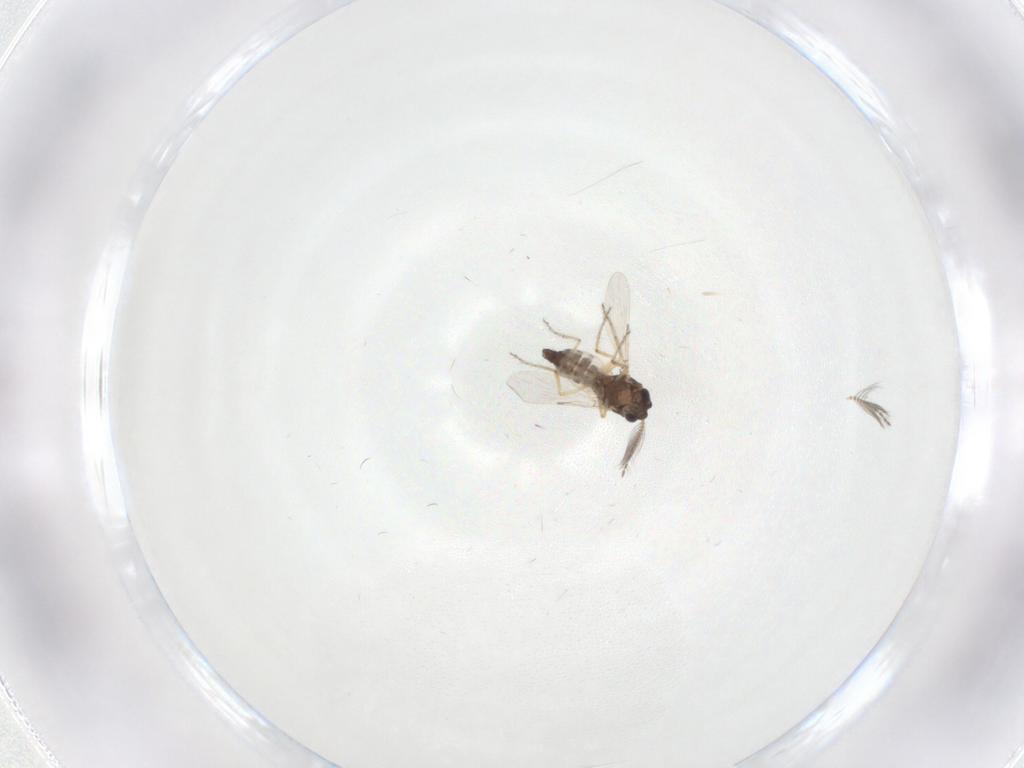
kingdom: Animalia
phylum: Arthropoda
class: Insecta
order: Diptera
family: Ceratopogonidae
